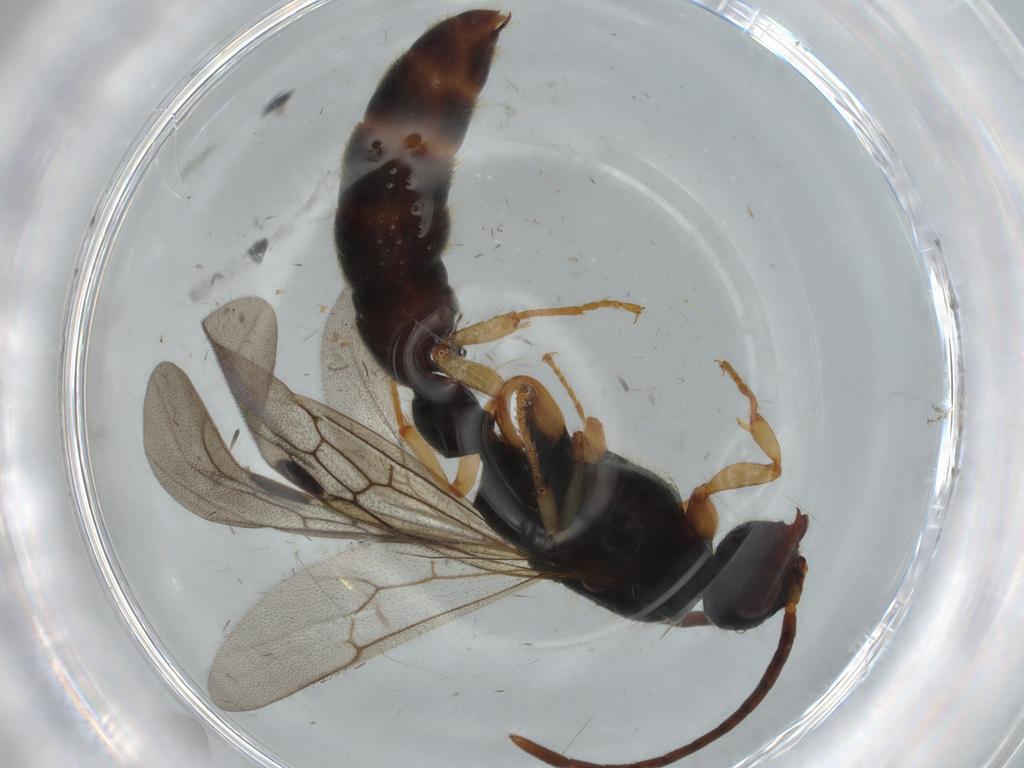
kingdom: Animalia
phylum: Arthropoda
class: Insecta
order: Hymenoptera
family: Formicidae
